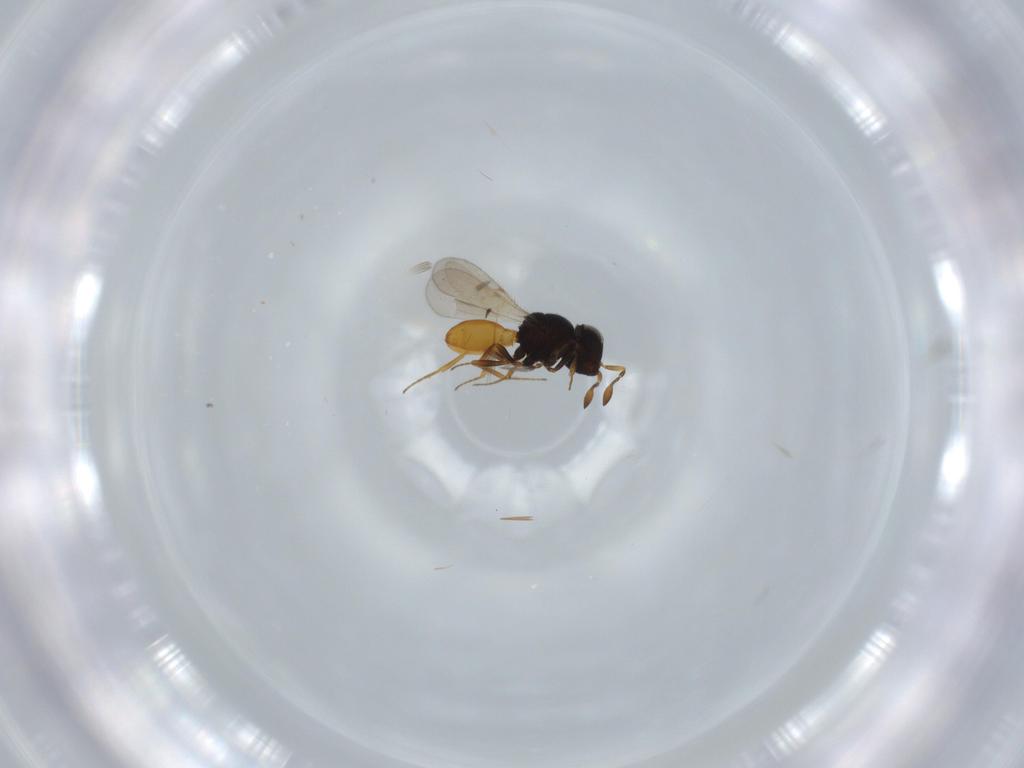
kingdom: Animalia
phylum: Arthropoda
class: Insecta
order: Hymenoptera
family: Scelionidae
